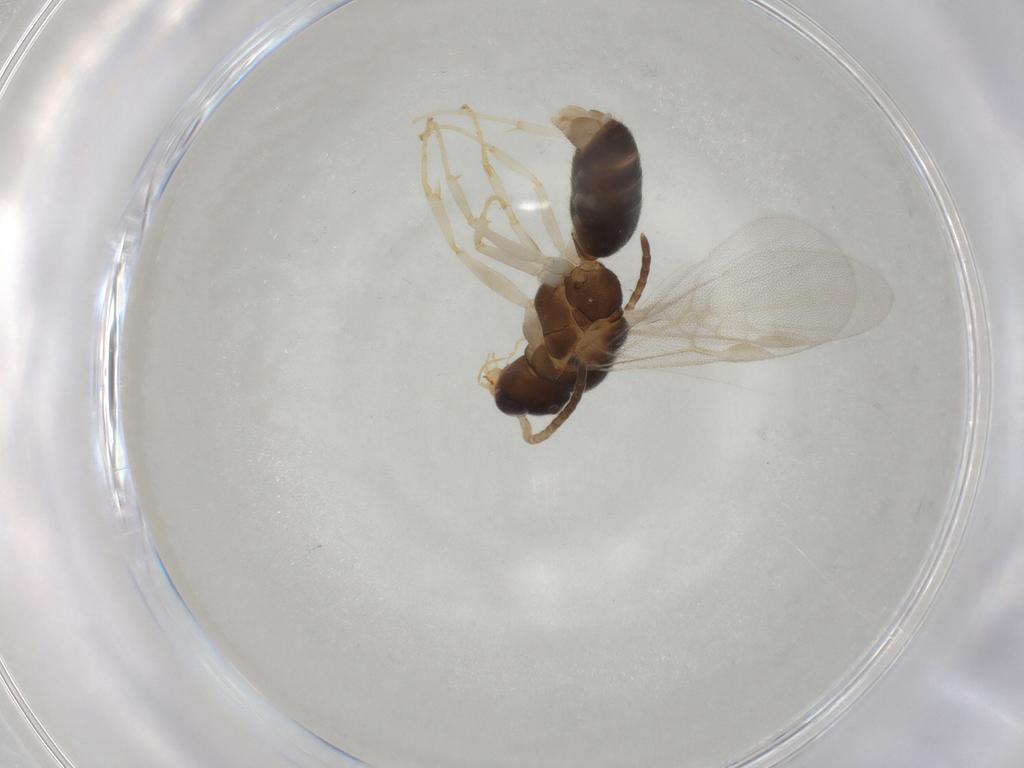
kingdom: Animalia
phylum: Arthropoda
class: Insecta
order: Hymenoptera
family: Formicidae
